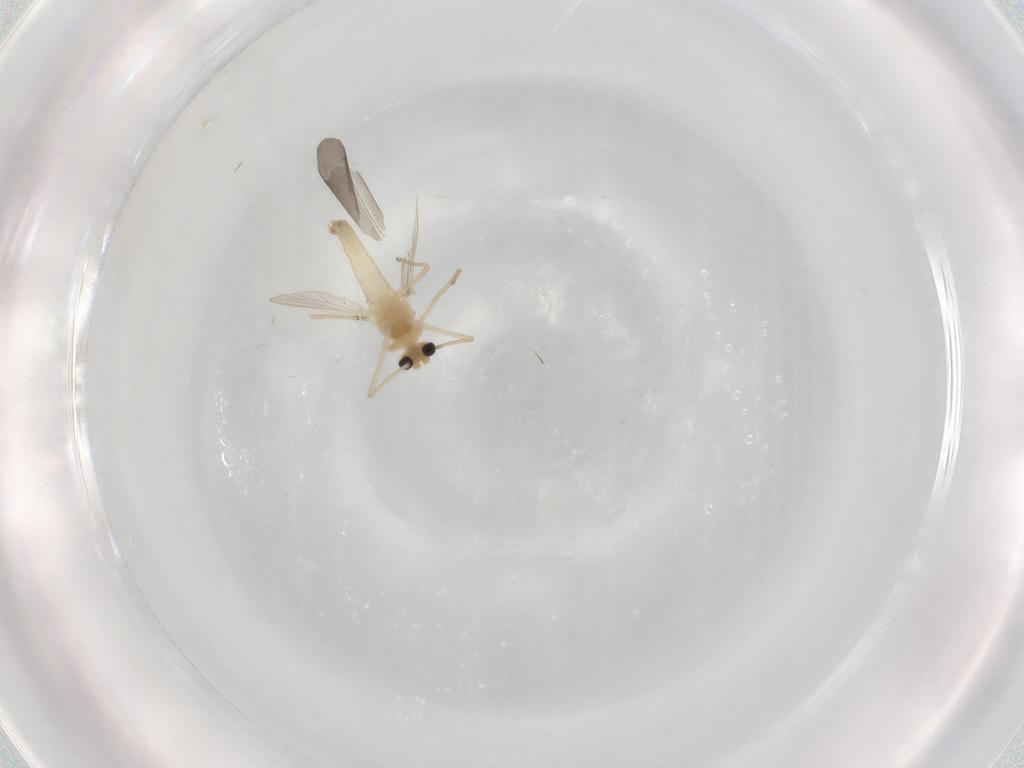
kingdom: Animalia
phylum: Arthropoda
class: Insecta
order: Diptera
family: Chironomidae
